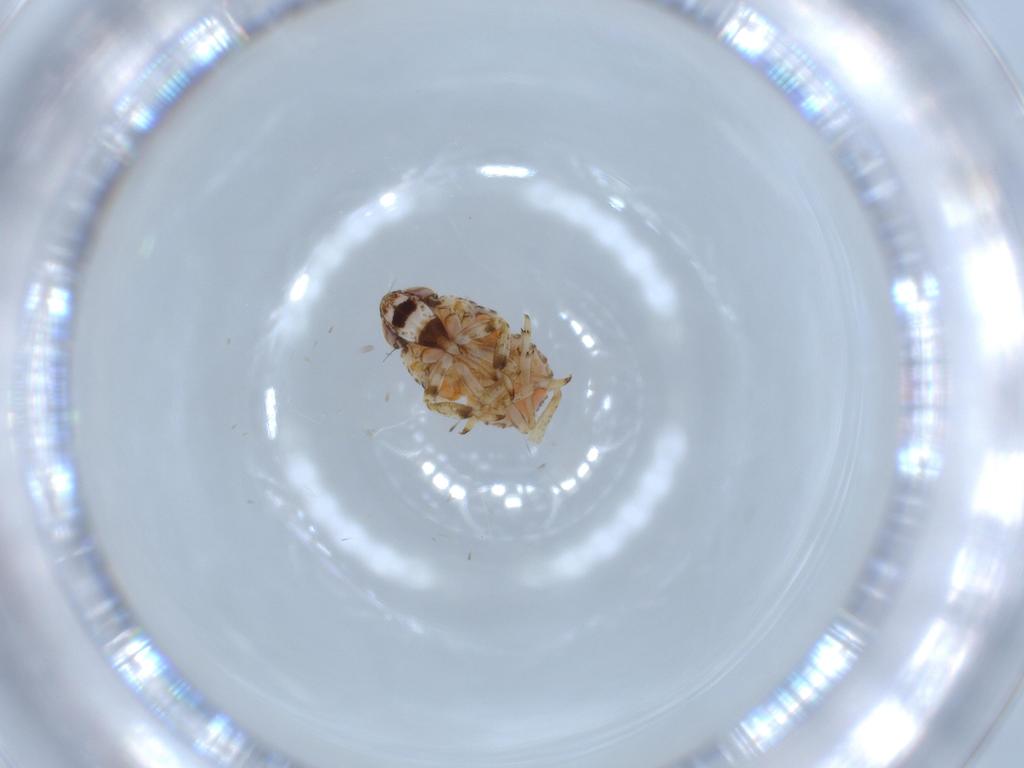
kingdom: Animalia
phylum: Arthropoda
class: Insecta
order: Hemiptera
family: Issidae
